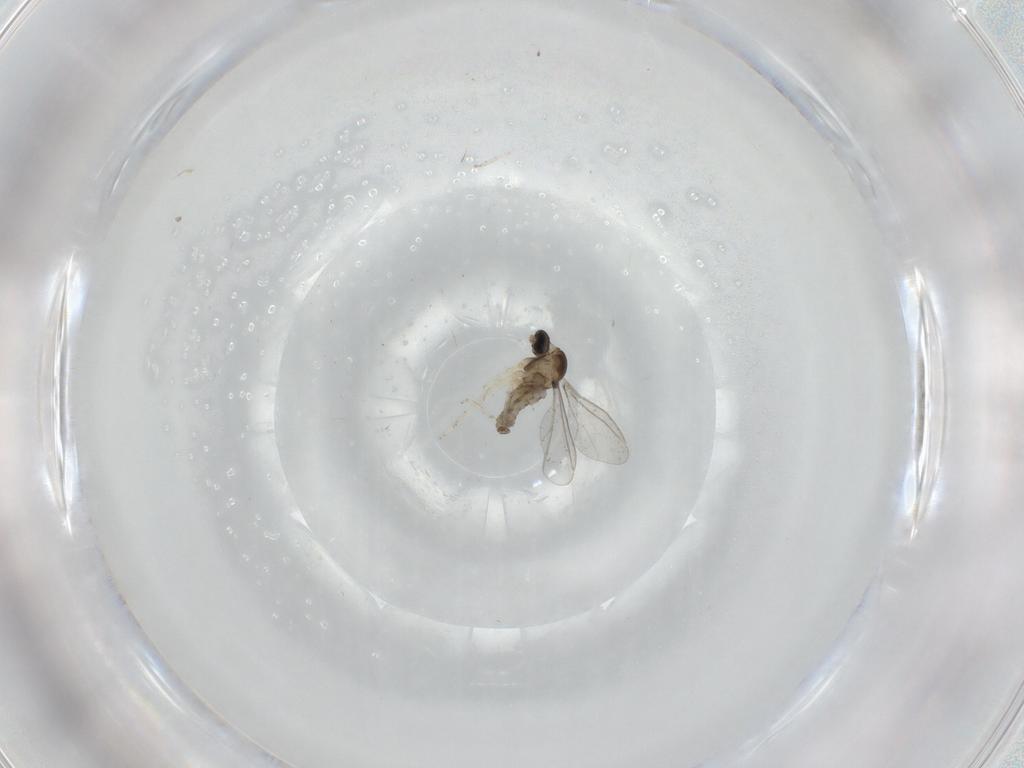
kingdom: Animalia
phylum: Arthropoda
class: Insecta
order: Diptera
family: Cecidomyiidae
